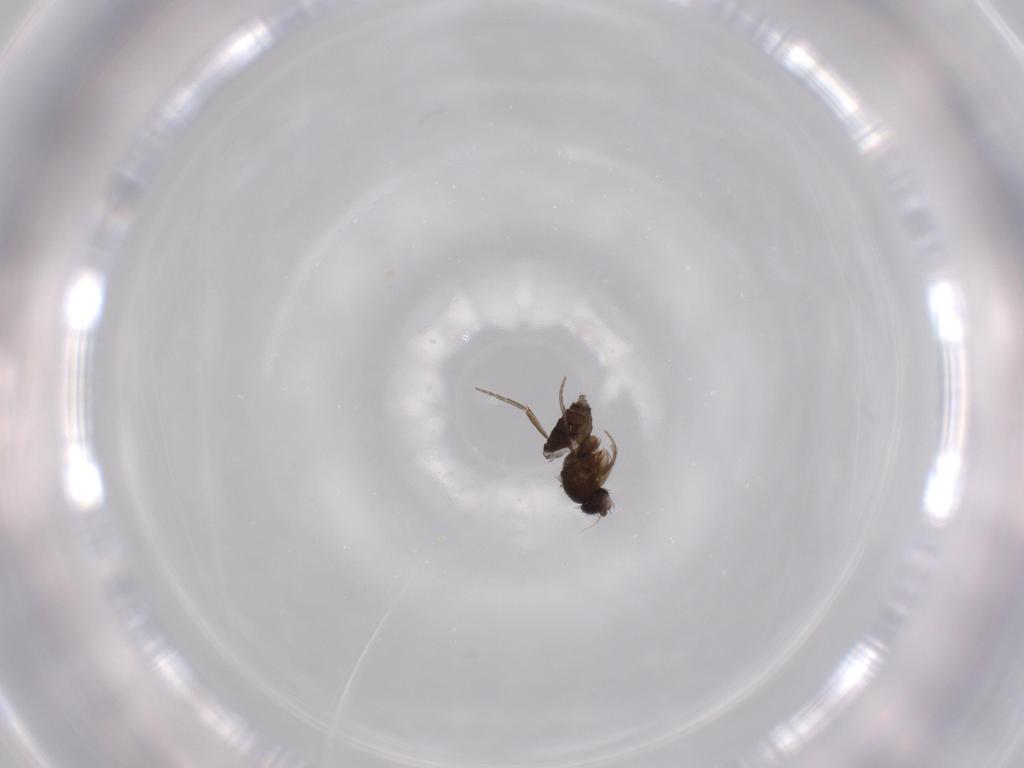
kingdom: Animalia
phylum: Arthropoda
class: Insecta
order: Diptera
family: Phoridae
